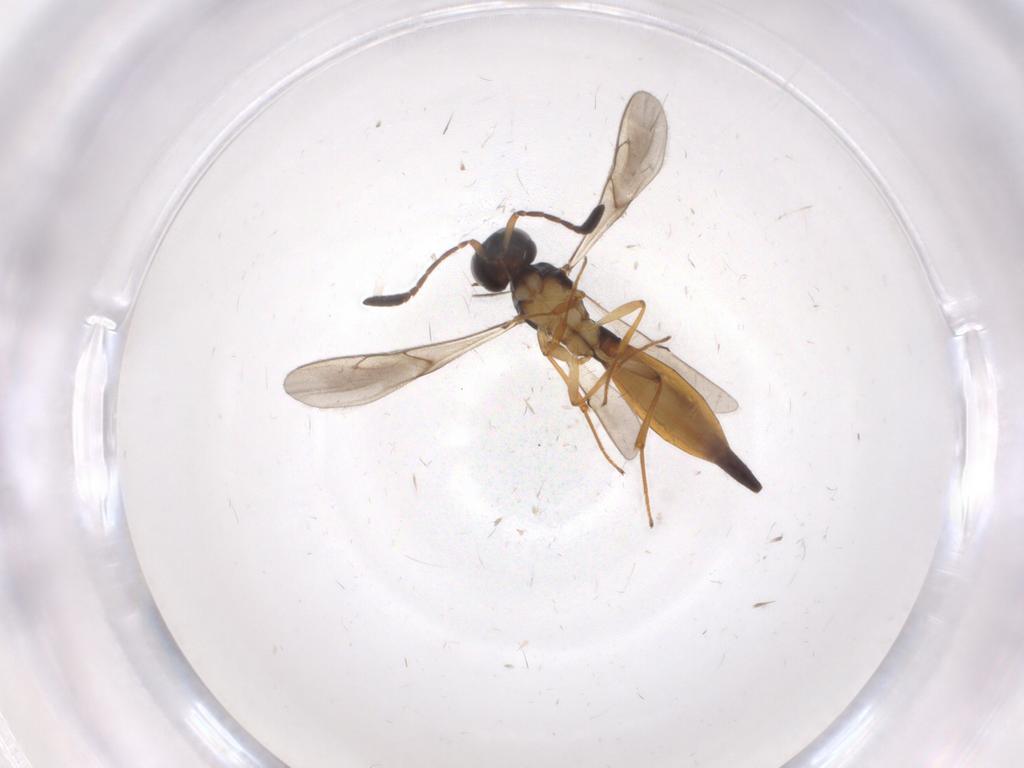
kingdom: Animalia
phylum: Arthropoda
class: Insecta
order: Hymenoptera
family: Scelionidae
